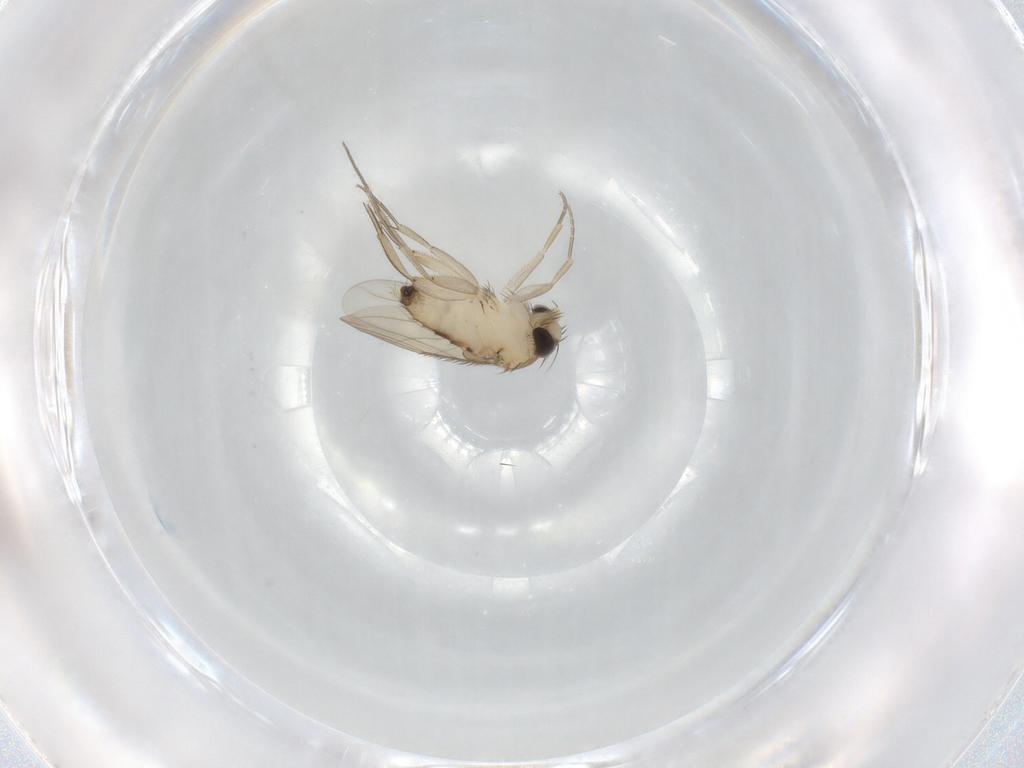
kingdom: Animalia
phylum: Arthropoda
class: Insecta
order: Diptera
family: Phoridae
